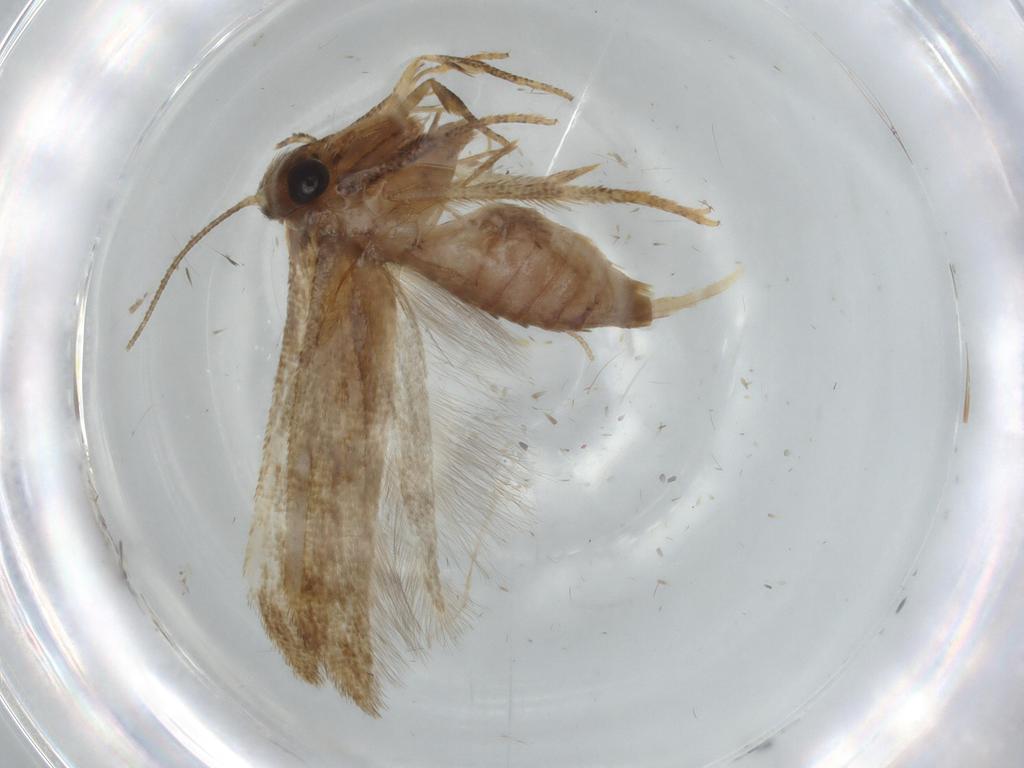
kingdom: Animalia
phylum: Arthropoda
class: Insecta
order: Lepidoptera
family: Blastobasidae
